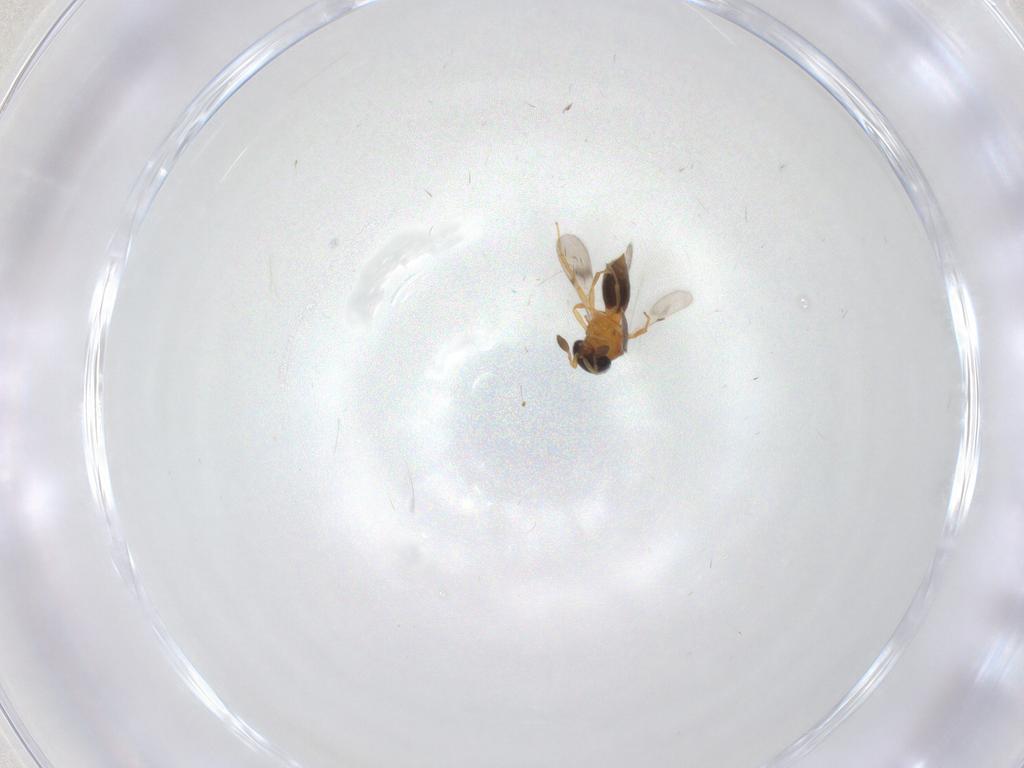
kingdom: Animalia
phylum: Arthropoda
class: Insecta
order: Hymenoptera
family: Scelionidae
